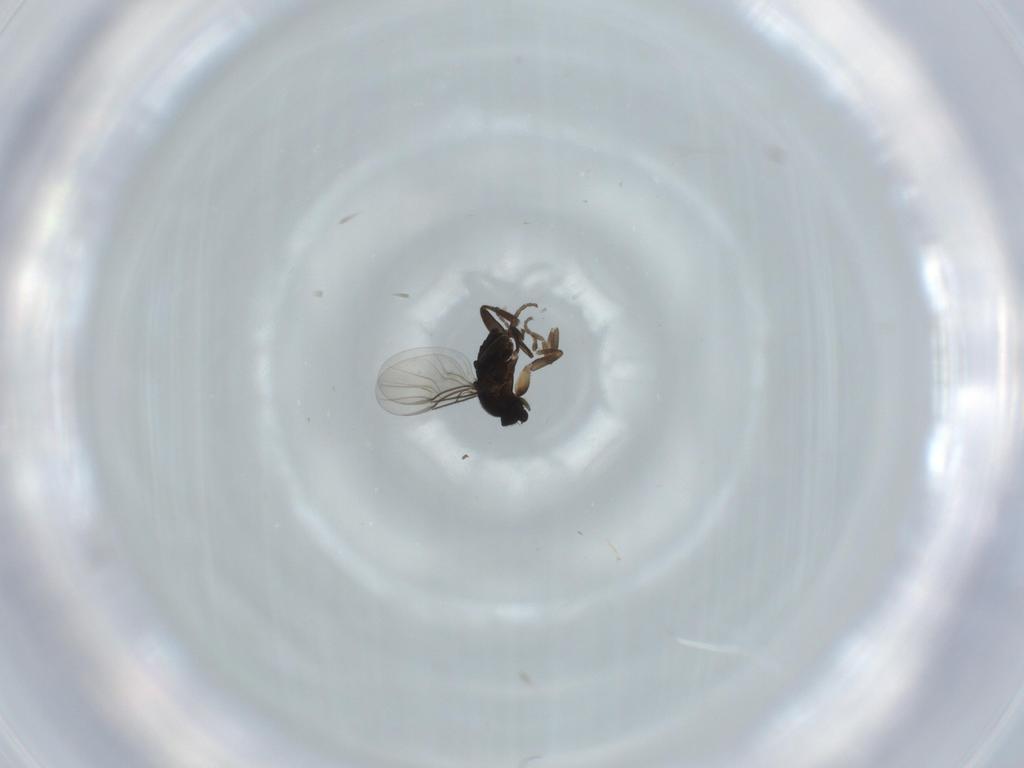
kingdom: Animalia
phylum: Arthropoda
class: Insecta
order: Diptera
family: Phoridae
